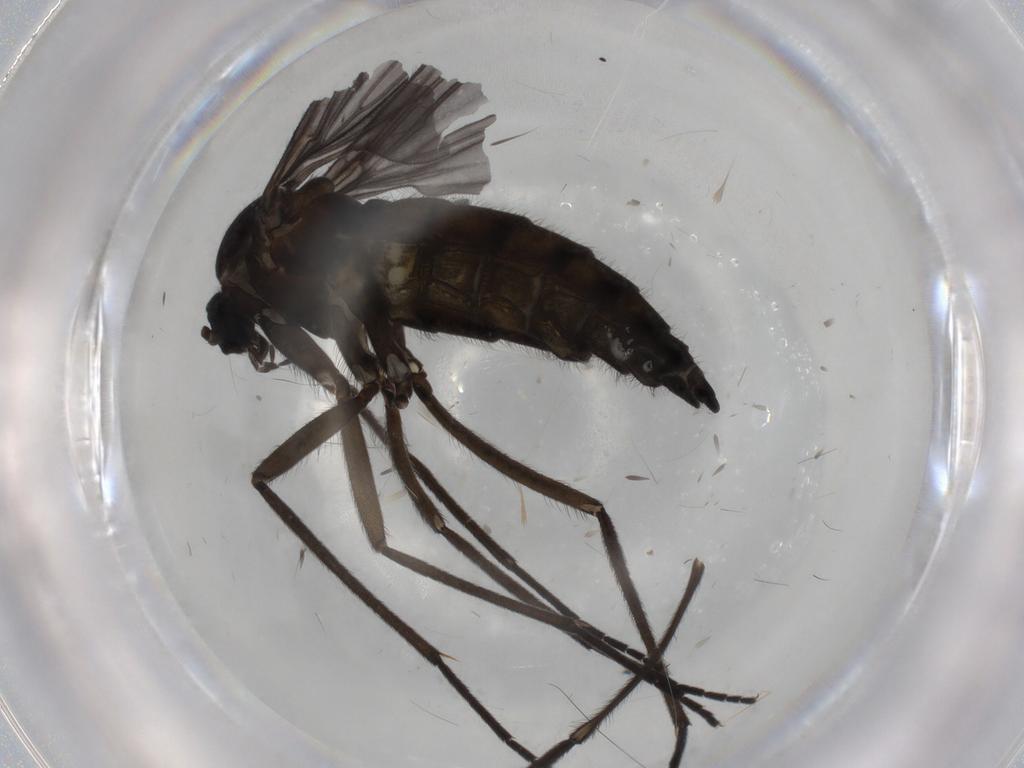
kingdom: Animalia
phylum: Arthropoda
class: Insecta
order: Diptera
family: Sciaridae
